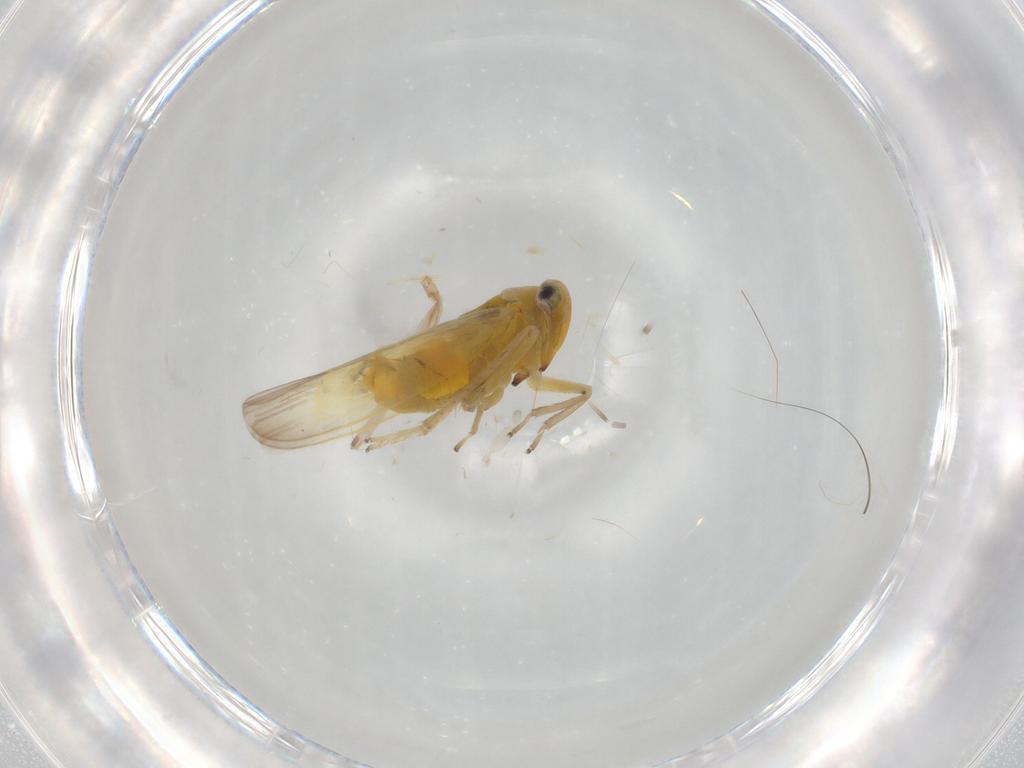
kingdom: Animalia
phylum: Arthropoda
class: Insecta
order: Hemiptera
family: Cicadellidae
